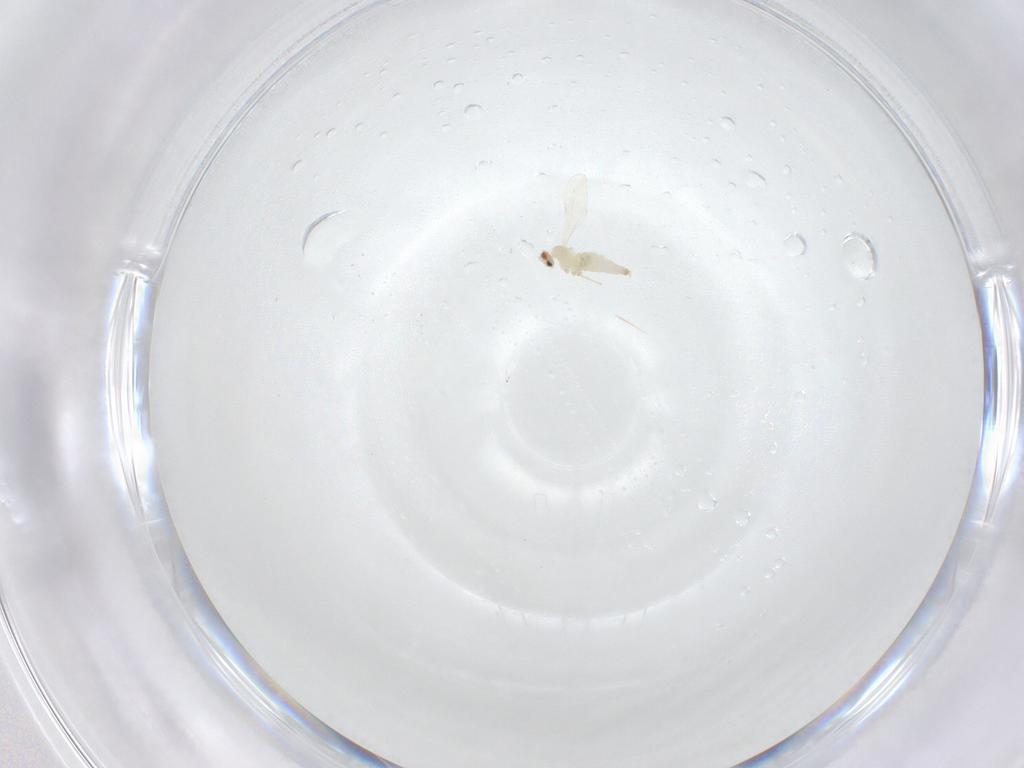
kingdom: Animalia
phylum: Arthropoda
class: Insecta
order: Diptera
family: Cecidomyiidae
